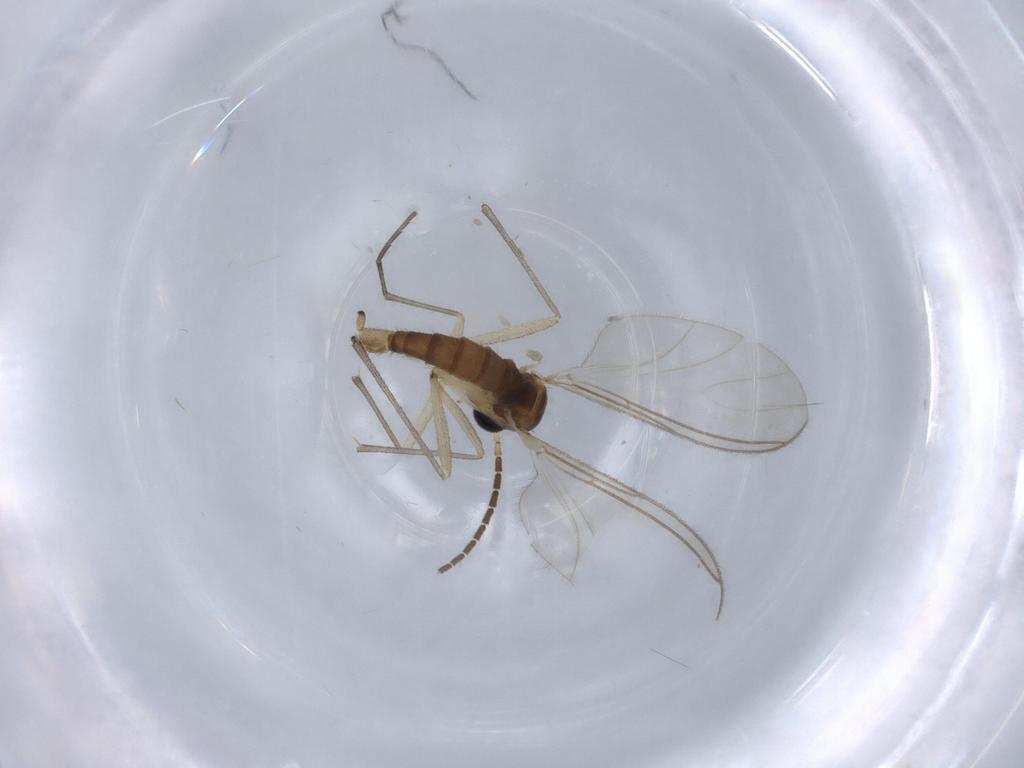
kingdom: Animalia
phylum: Arthropoda
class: Insecta
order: Diptera
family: Sciaridae
